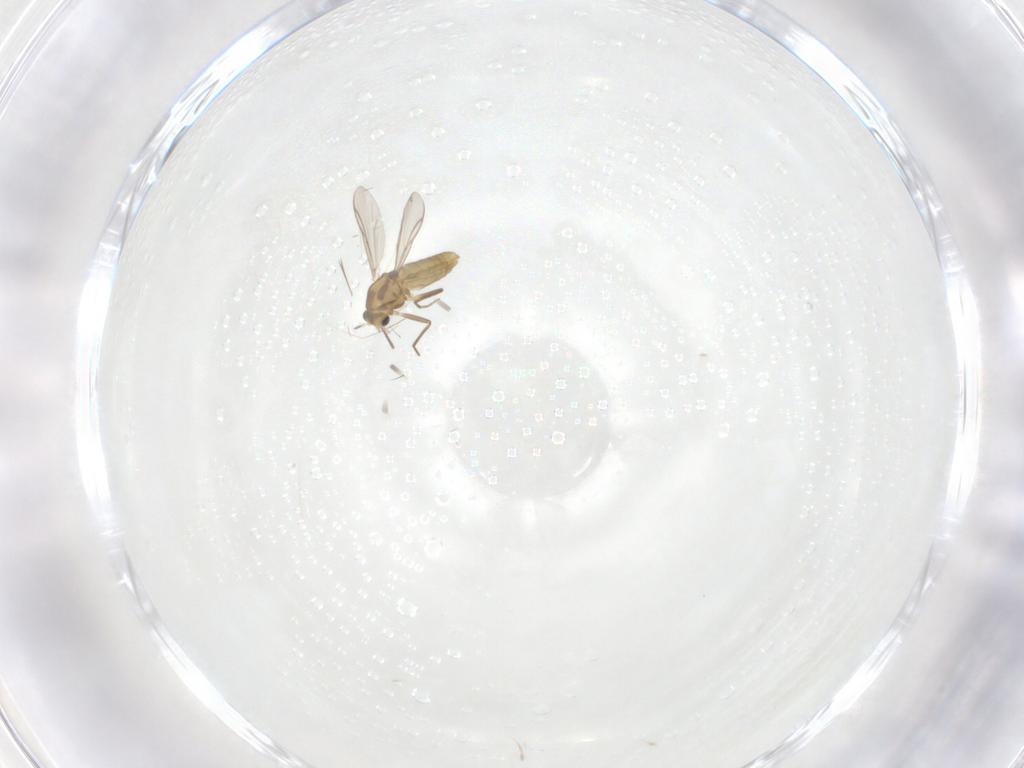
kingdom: Animalia
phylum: Arthropoda
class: Insecta
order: Diptera
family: Chironomidae
